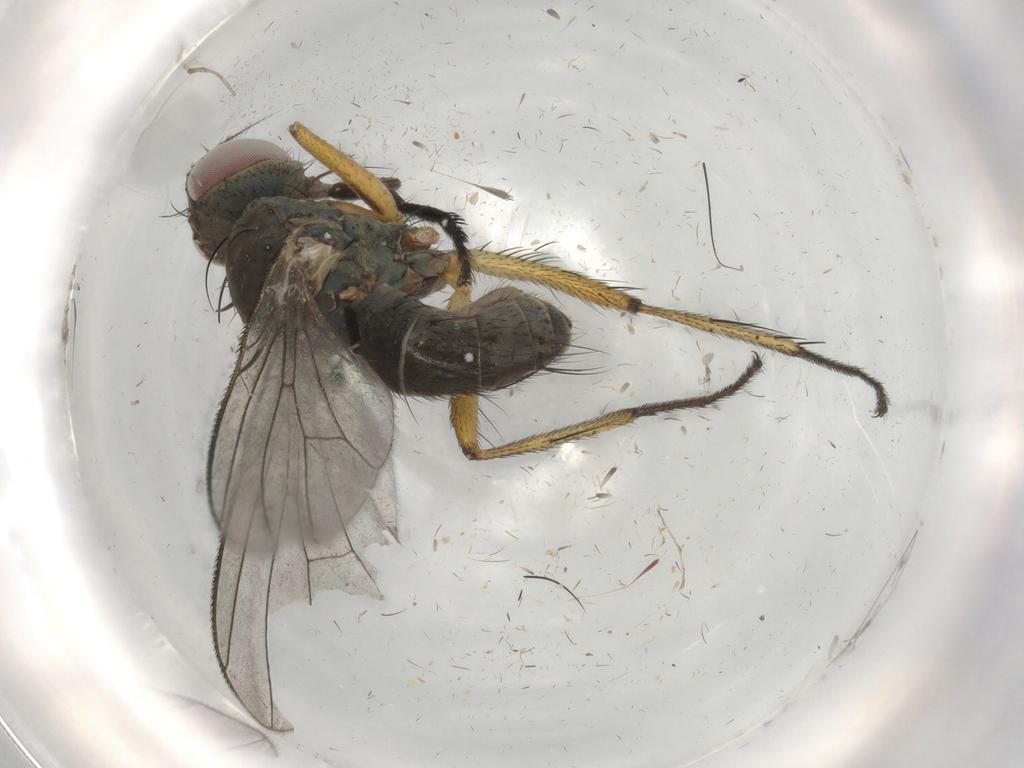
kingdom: Animalia
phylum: Arthropoda
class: Insecta
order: Diptera
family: Muscidae
